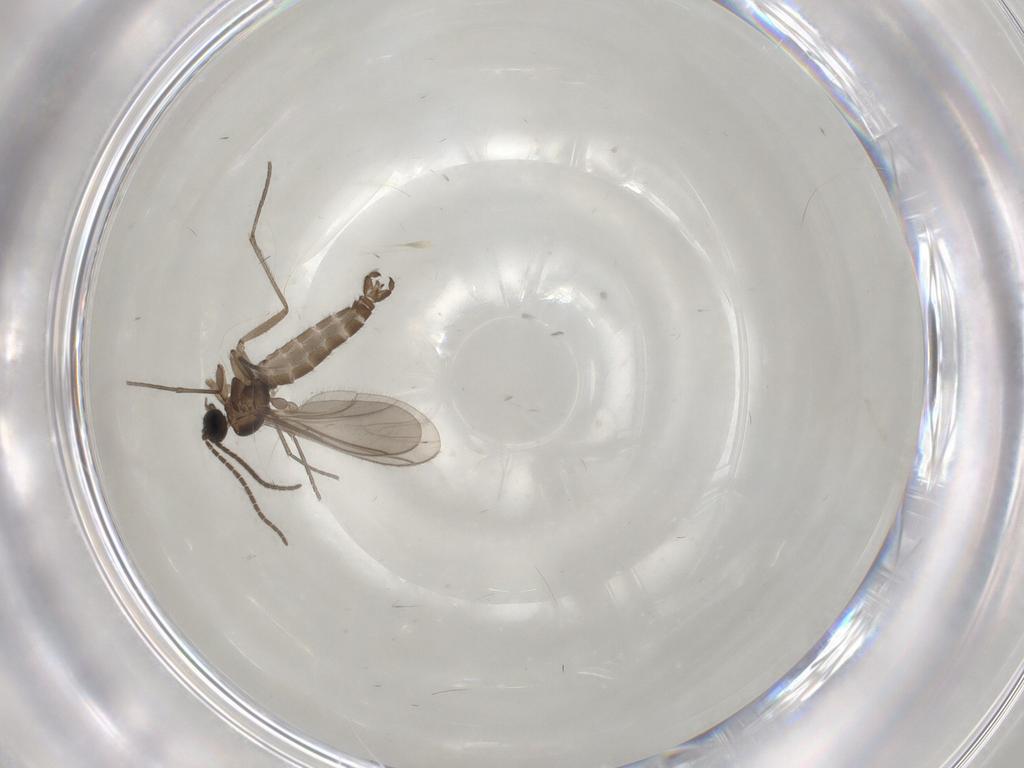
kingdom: Animalia
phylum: Arthropoda
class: Insecta
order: Diptera
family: Sciaridae
